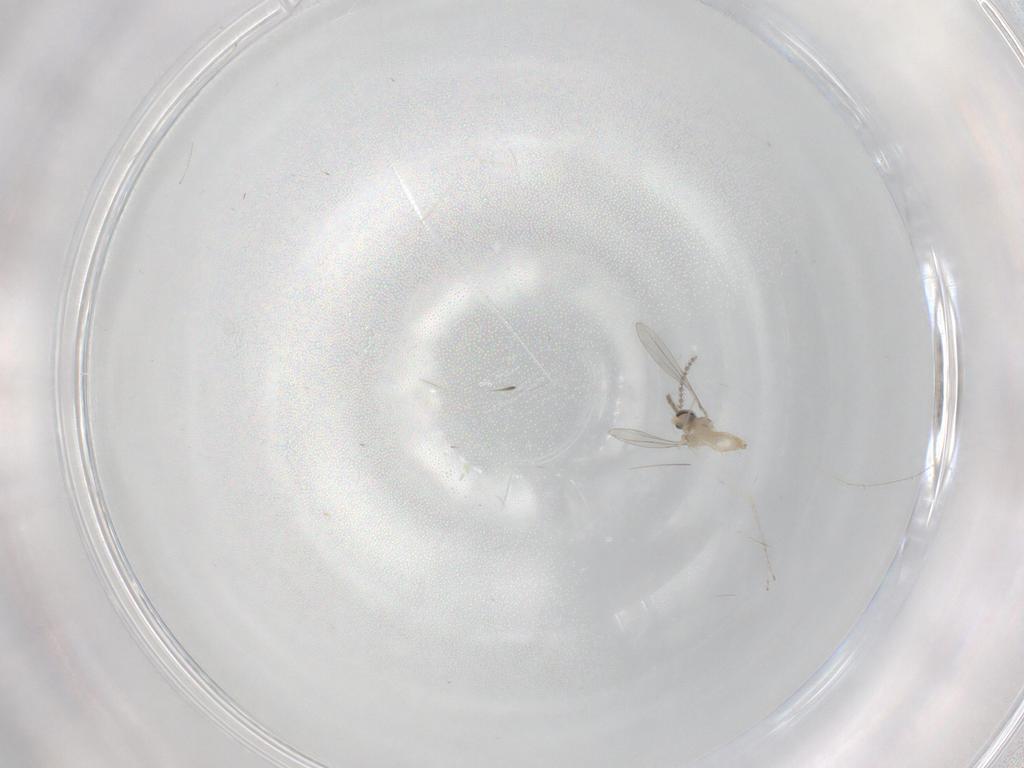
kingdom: Animalia
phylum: Arthropoda
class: Insecta
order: Diptera
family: Cecidomyiidae
